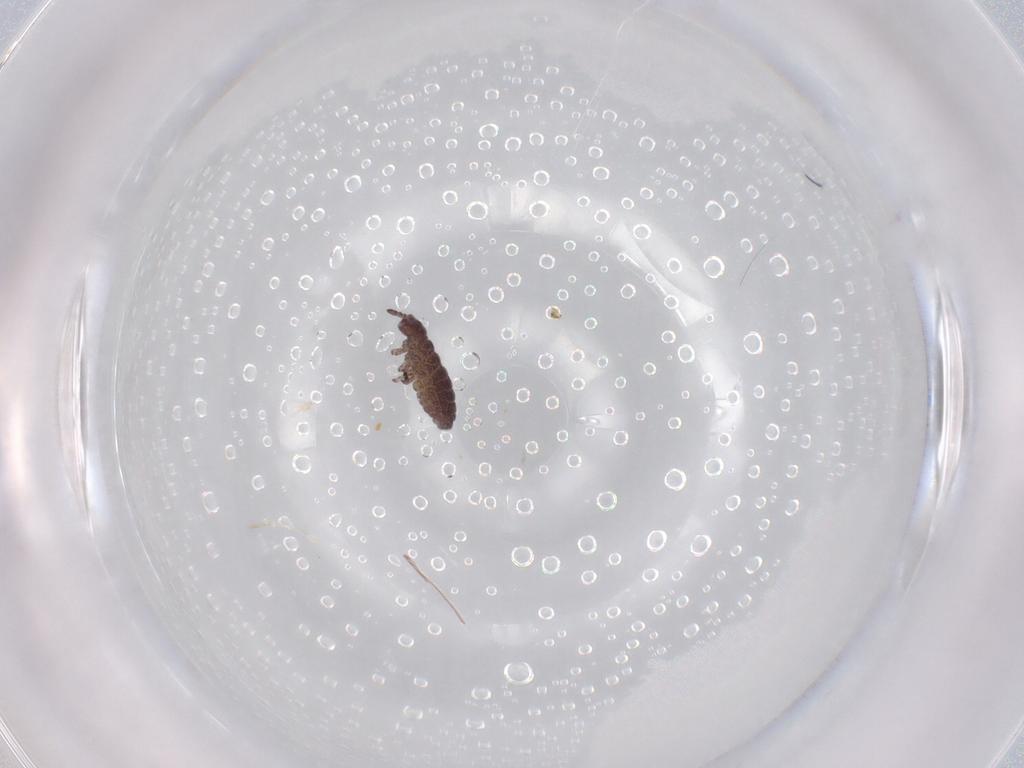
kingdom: Animalia
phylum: Arthropoda
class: Collembola
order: Poduromorpha
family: Hypogastruridae
